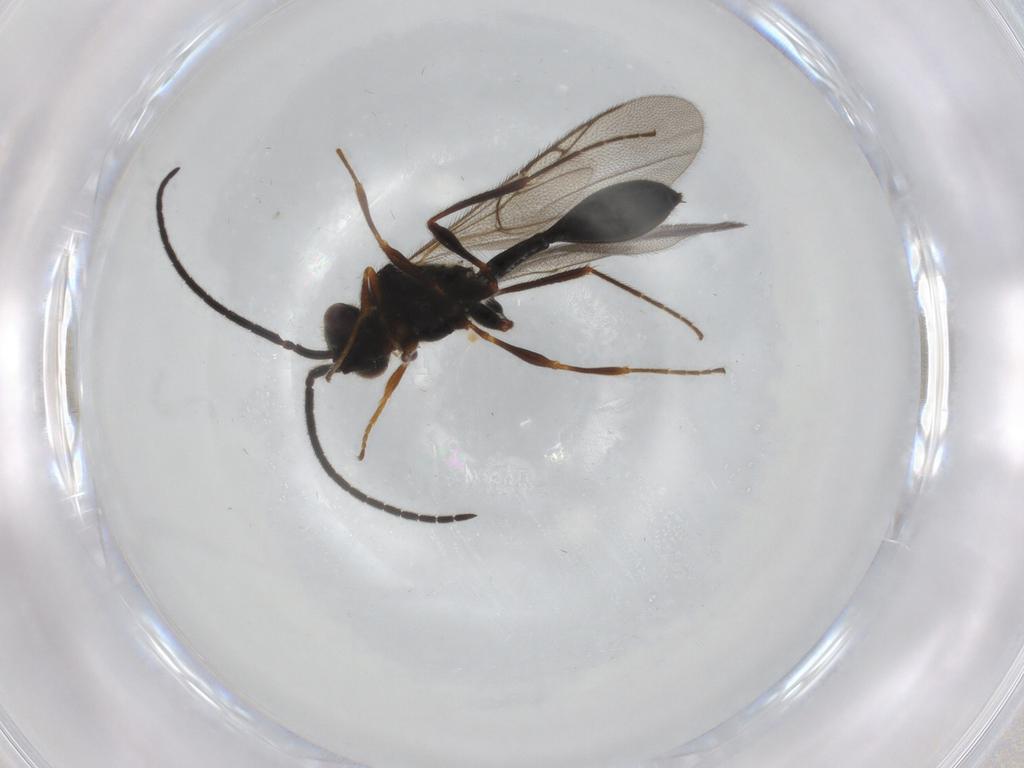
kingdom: Animalia
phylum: Arthropoda
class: Insecta
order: Hymenoptera
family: Diapriidae
